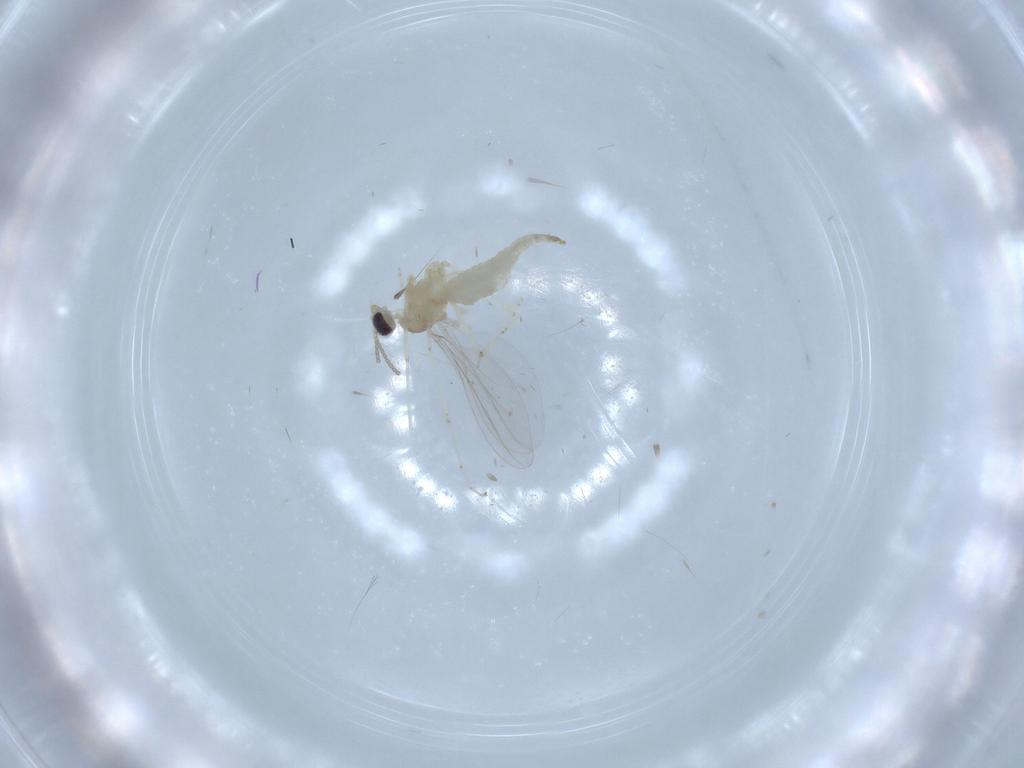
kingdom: Animalia
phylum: Arthropoda
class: Insecta
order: Diptera
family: Cecidomyiidae
